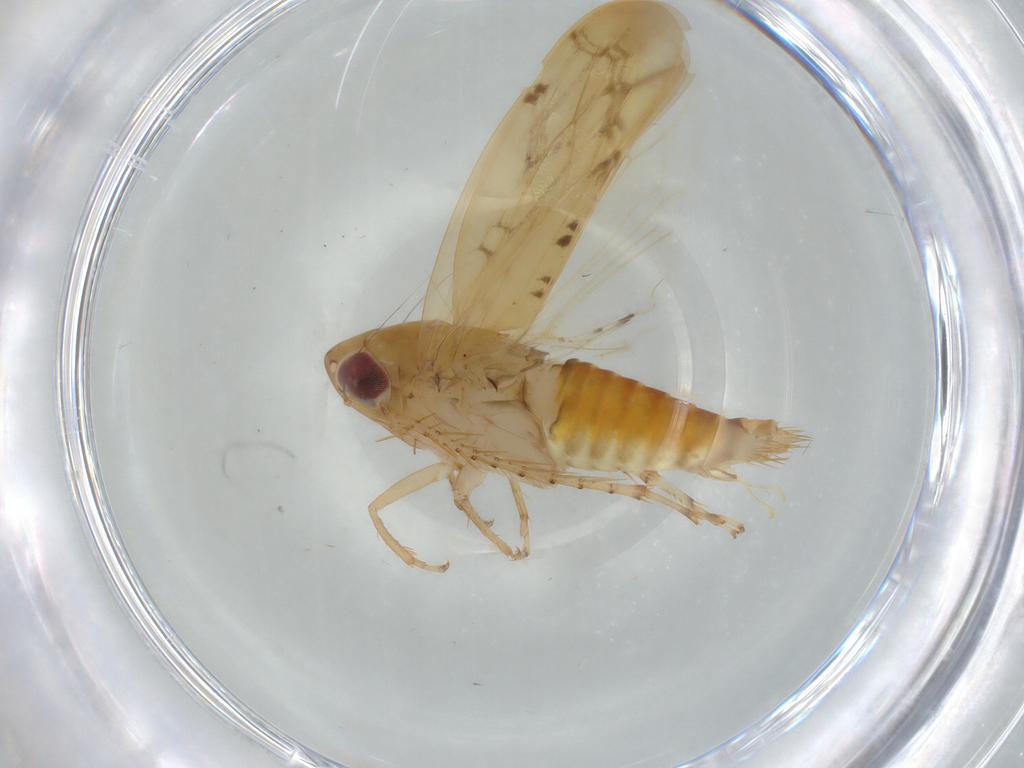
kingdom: Animalia
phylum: Arthropoda
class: Insecta
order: Hemiptera
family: Cicadellidae
